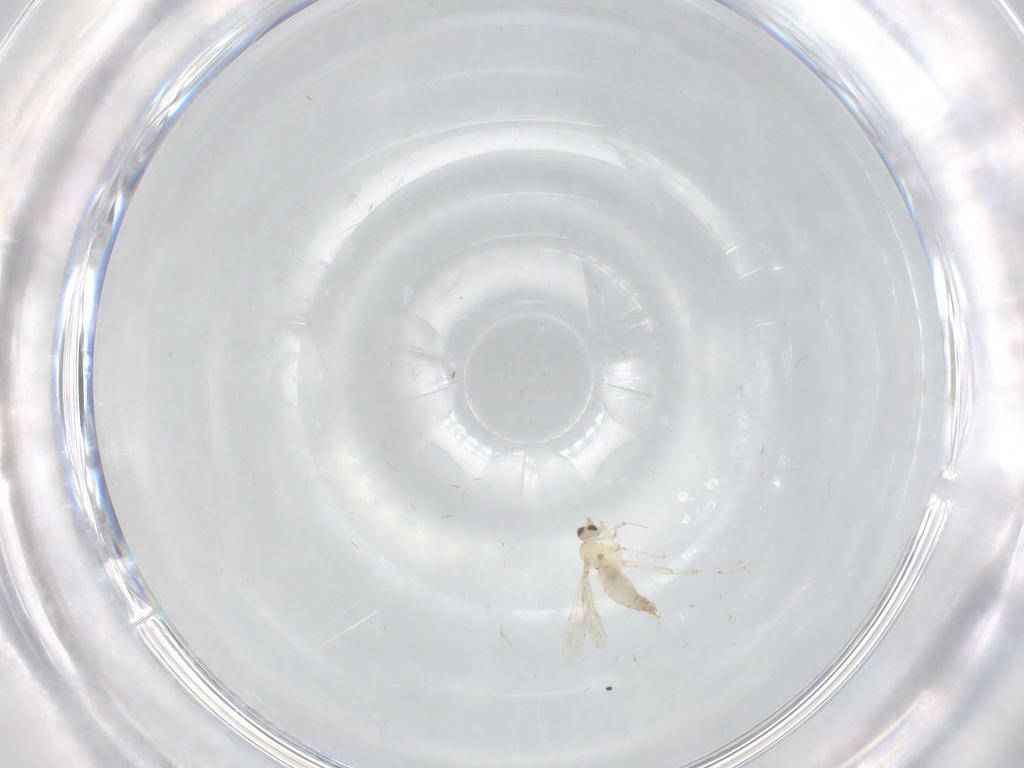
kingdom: Animalia
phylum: Arthropoda
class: Insecta
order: Diptera
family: Cecidomyiidae
